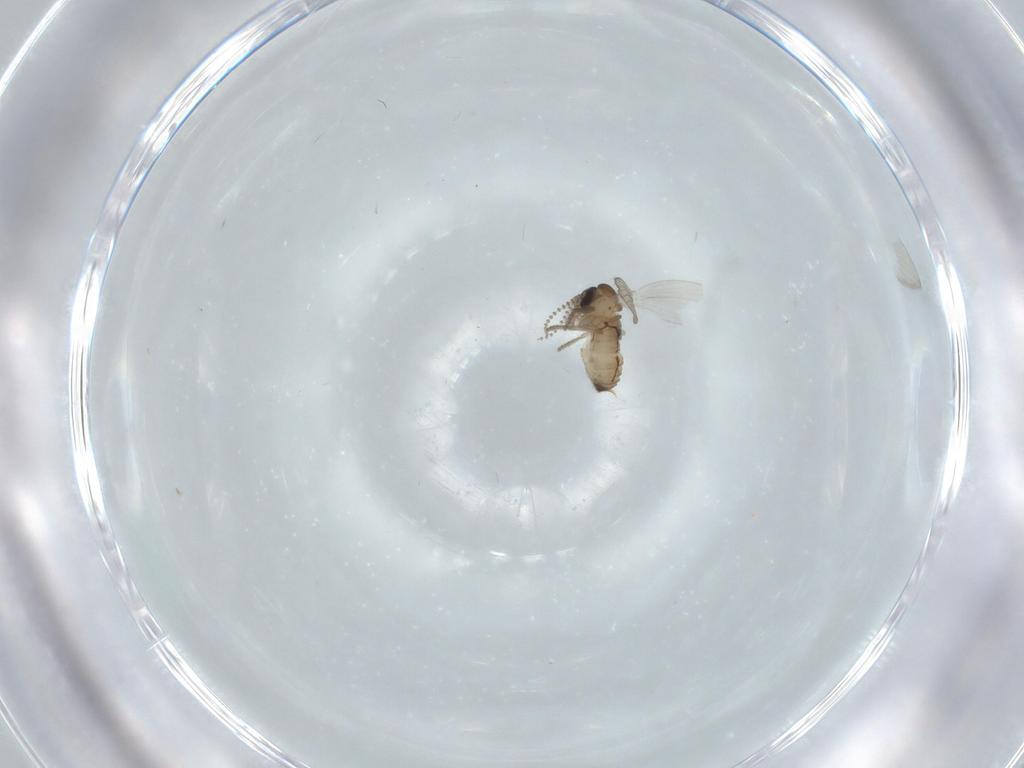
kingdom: Animalia
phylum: Arthropoda
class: Insecta
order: Diptera
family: Psychodidae
